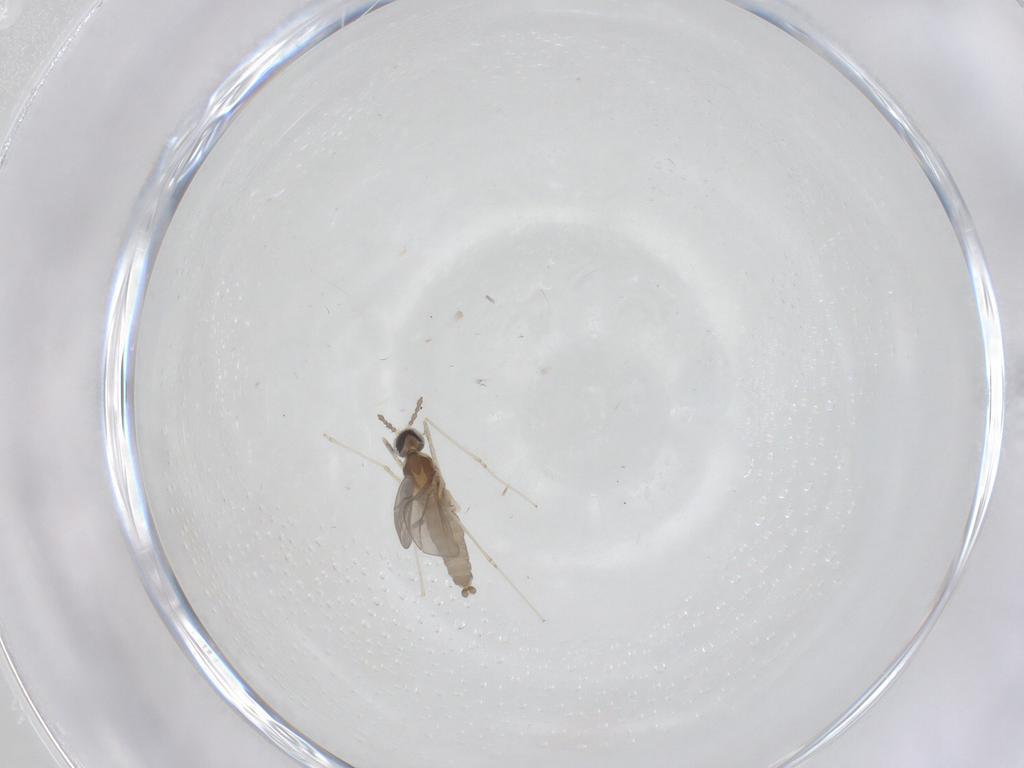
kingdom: Animalia
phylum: Arthropoda
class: Insecta
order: Diptera
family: Cecidomyiidae
